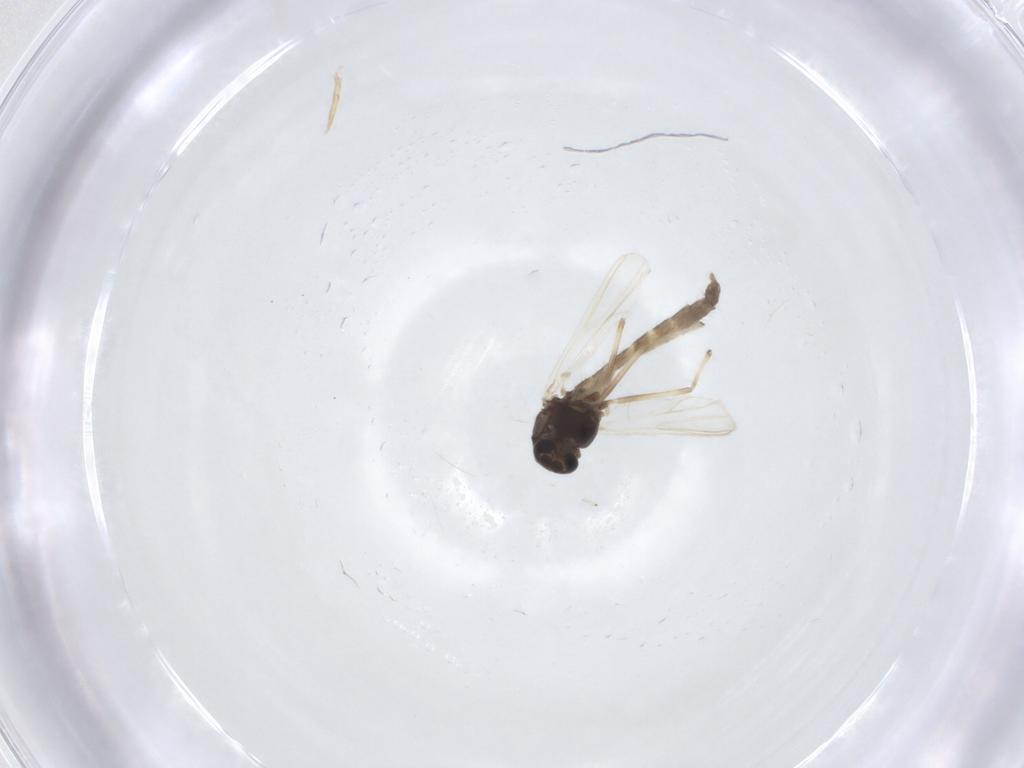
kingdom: Animalia
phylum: Arthropoda
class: Insecta
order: Diptera
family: Chironomidae
